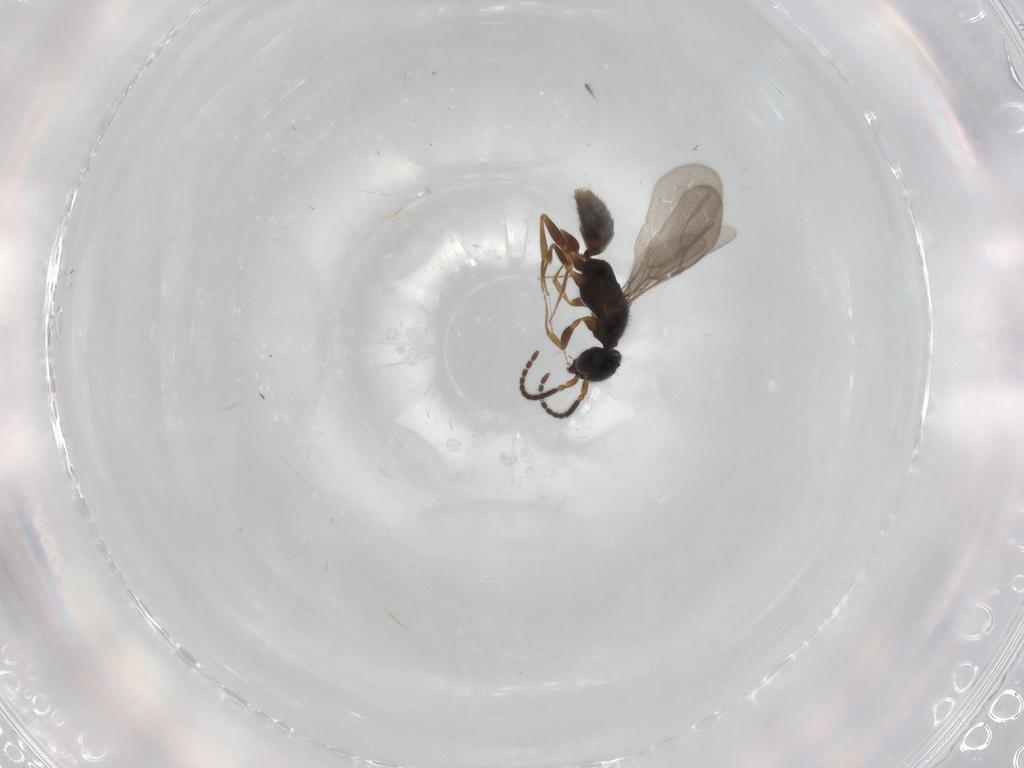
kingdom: Animalia
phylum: Arthropoda
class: Insecta
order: Hymenoptera
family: Bethylidae
